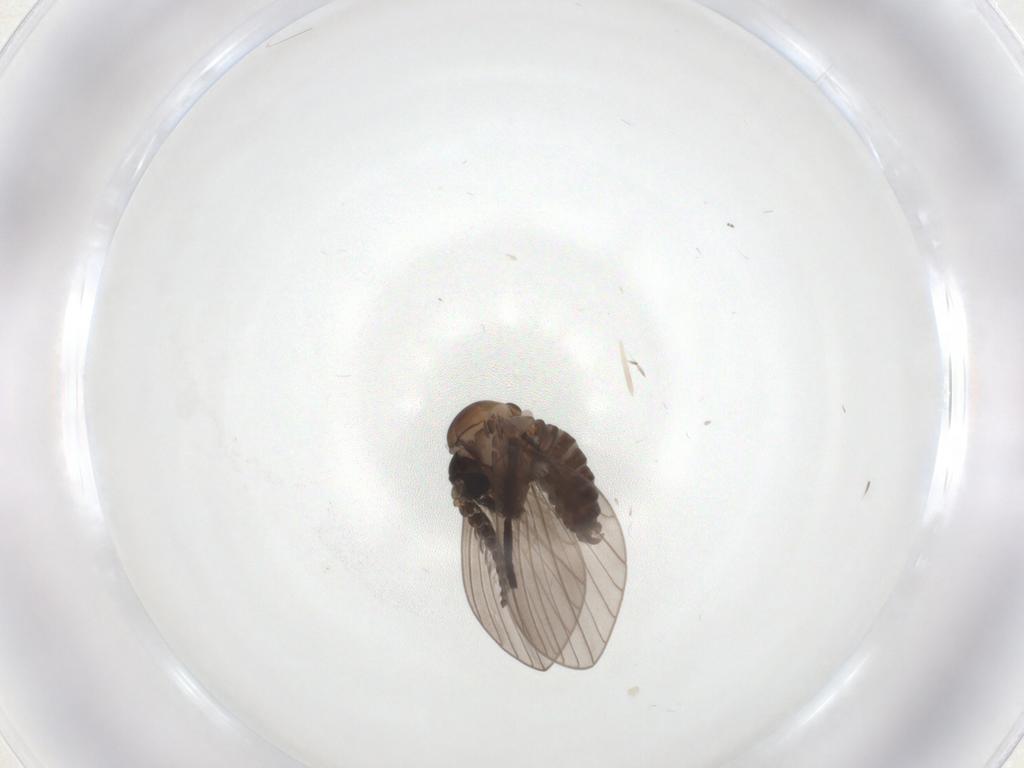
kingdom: Animalia
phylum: Arthropoda
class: Insecta
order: Diptera
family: Psychodidae
